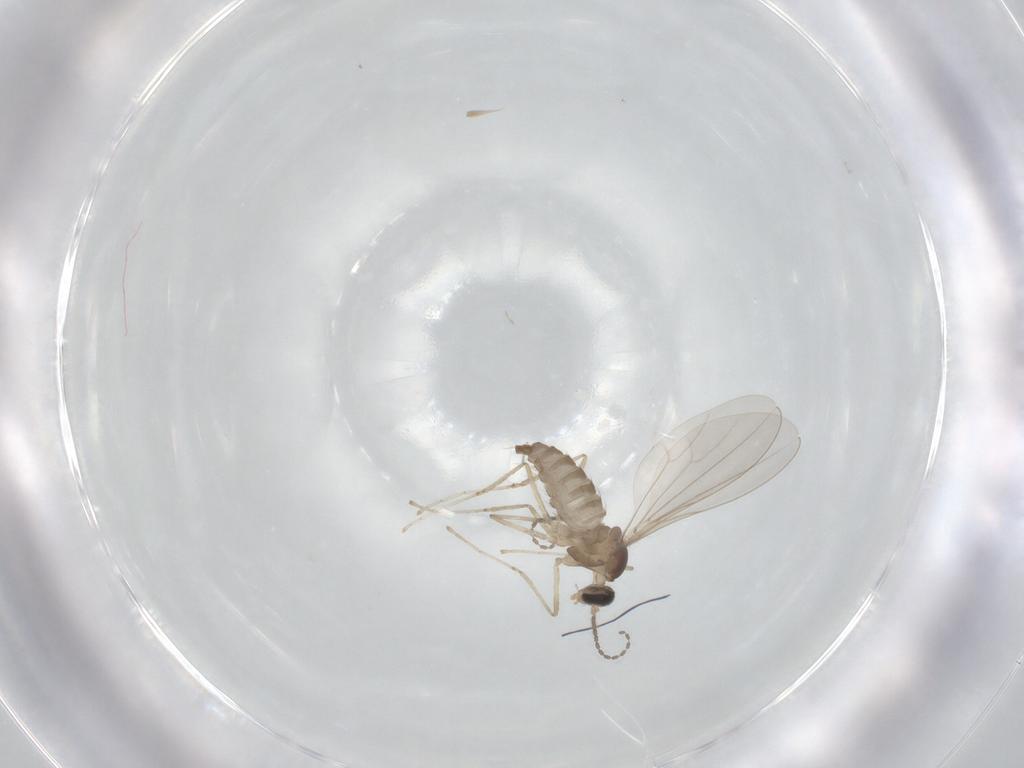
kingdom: Animalia
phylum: Arthropoda
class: Insecta
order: Diptera
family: Cecidomyiidae
